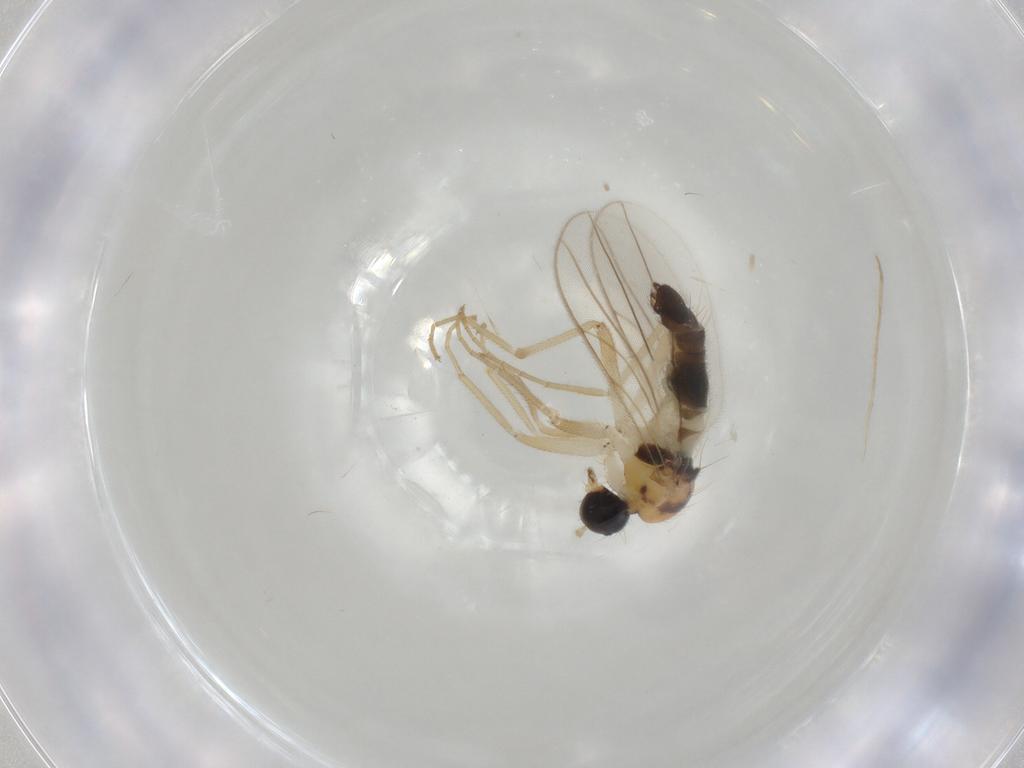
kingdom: Animalia
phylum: Arthropoda
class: Insecta
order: Diptera
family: Hybotidae
